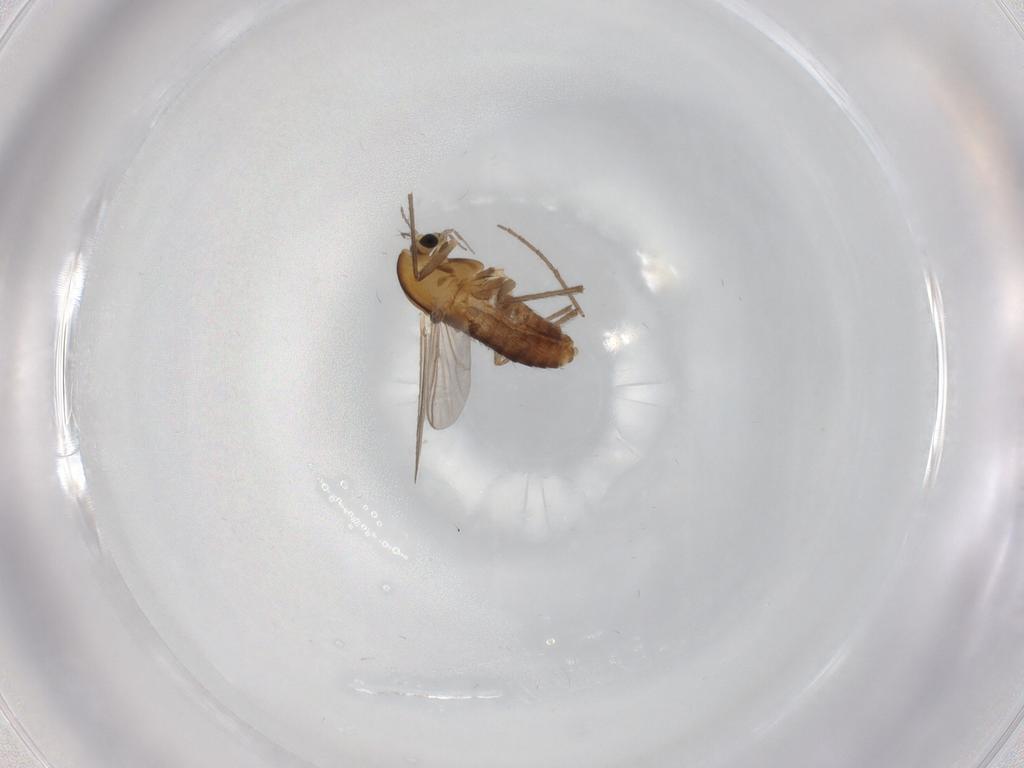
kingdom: Animalia
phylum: Arthropoda
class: Insecta
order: Diptera
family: Chironomidae
